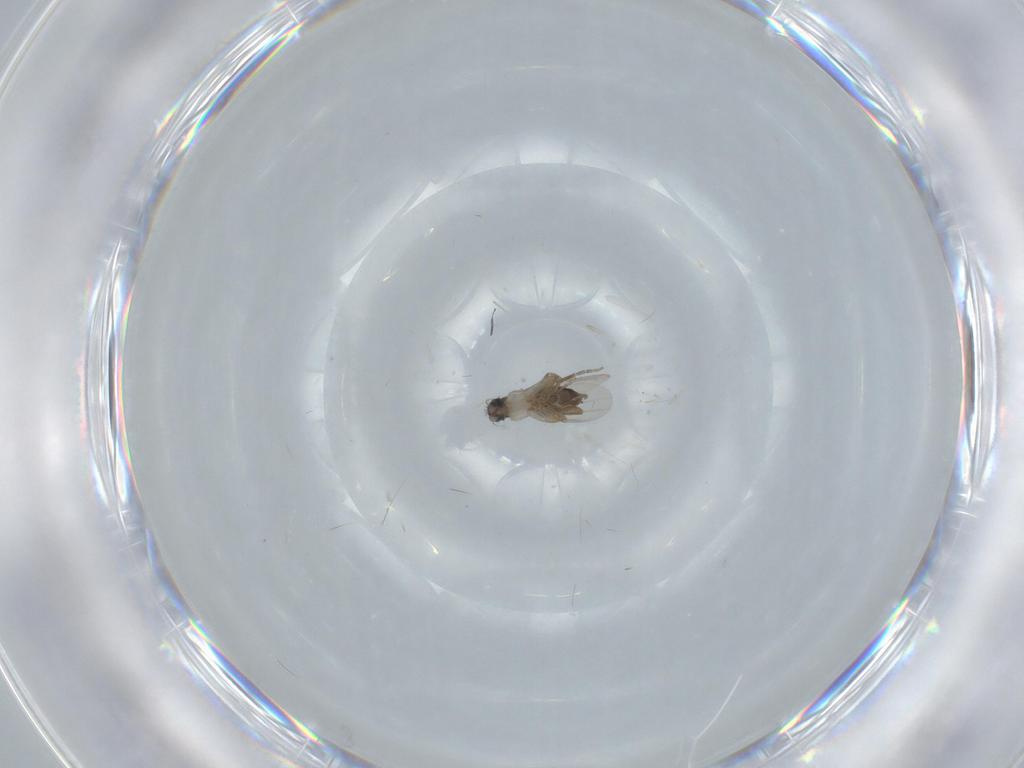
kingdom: Animalia
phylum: Arthropoda
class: Insecta
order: Diptera
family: Phoridae
